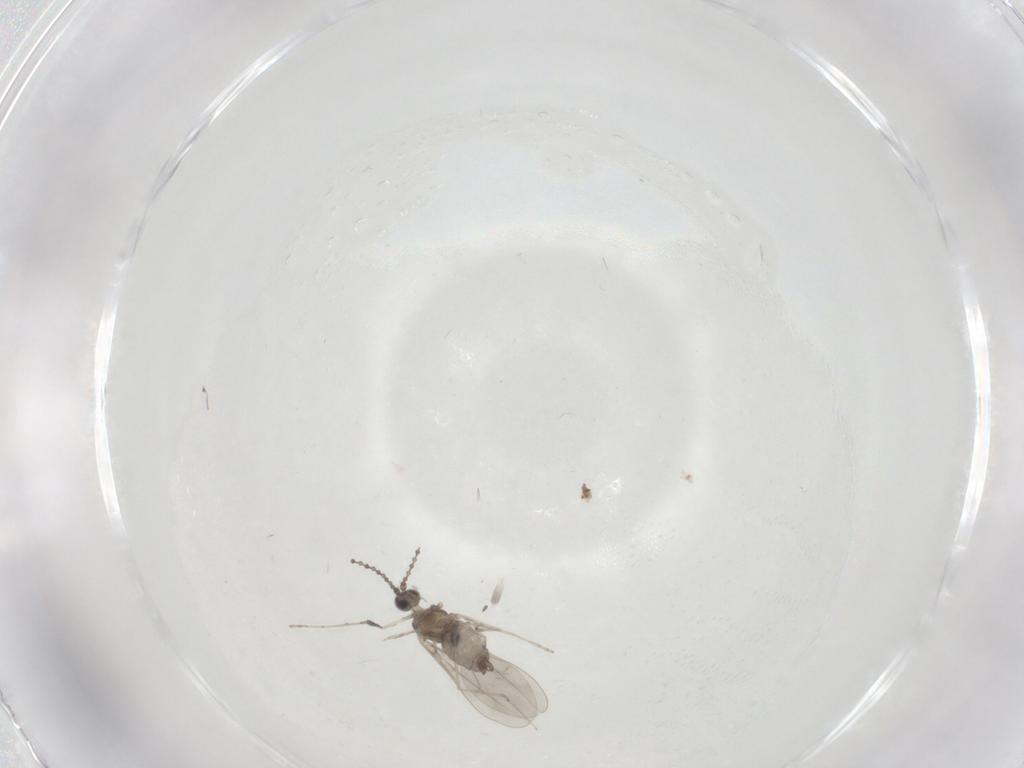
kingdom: Animalia
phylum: Arthropoda
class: Insecta
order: Diptera
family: Cecidomyiidae
